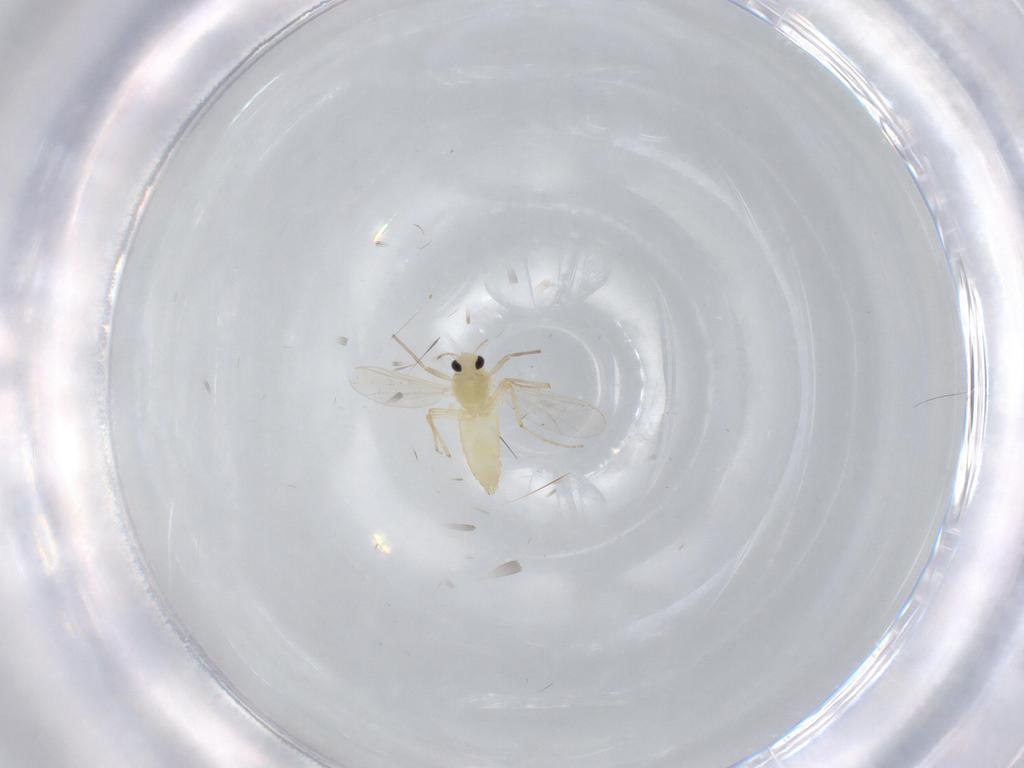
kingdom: Animalia
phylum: Arthropoda
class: Insecta
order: Diptera
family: Chironomidae
